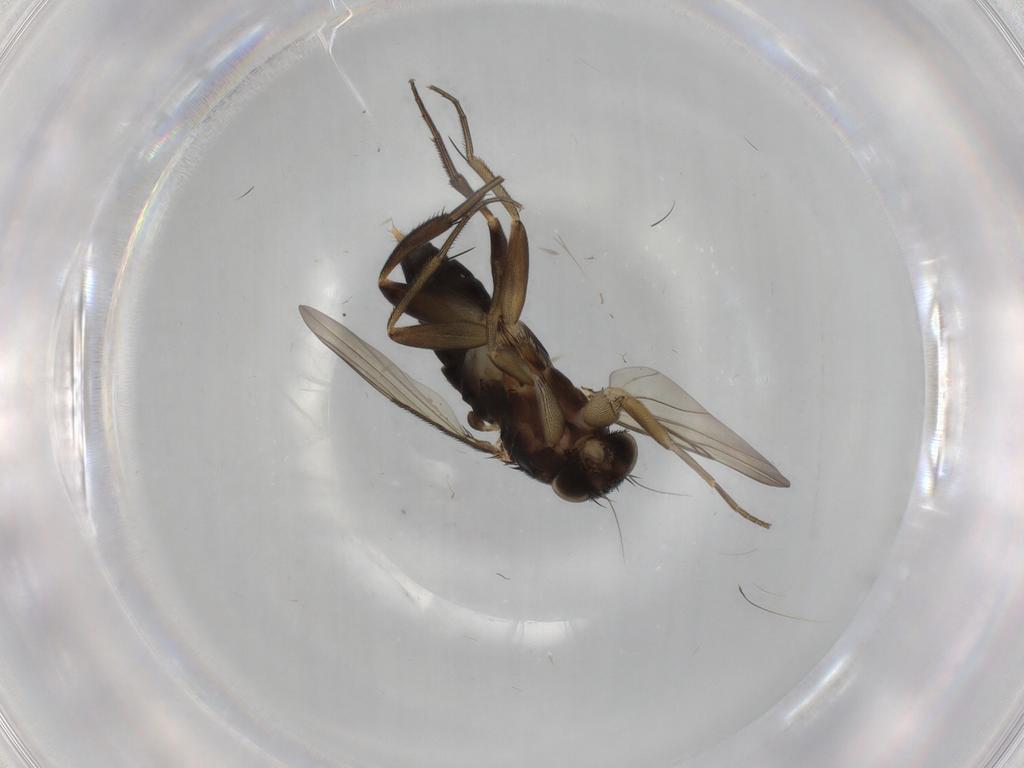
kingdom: Animalia
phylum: Arthropoda
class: Insecta
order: Diptera
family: Phoridae
